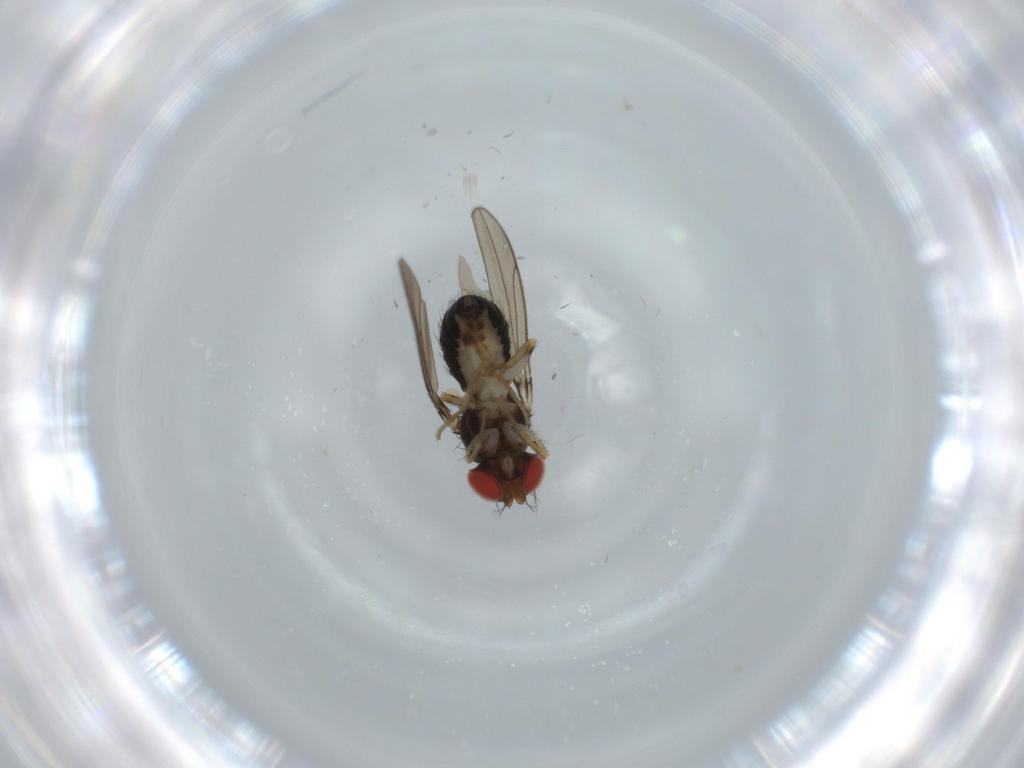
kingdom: Animalia
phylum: Arthropoda
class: Insecta
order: Diptera
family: Drosophilidae
